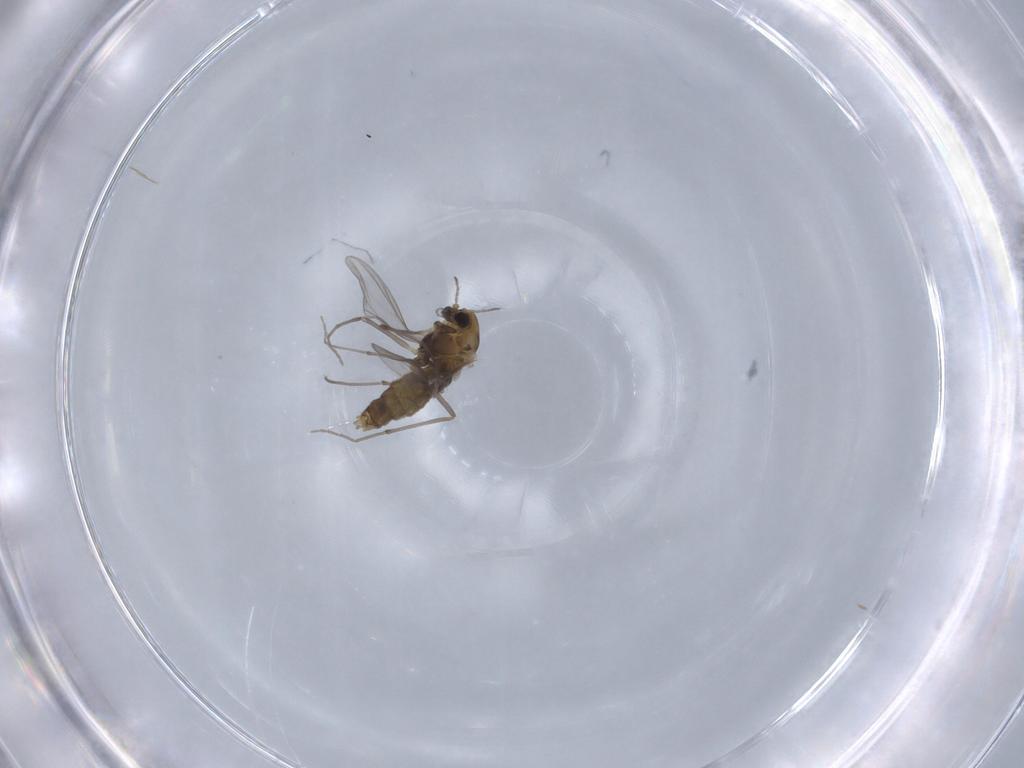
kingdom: Animalia
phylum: Arthropoda
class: Insecta
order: Diptera
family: Chironomidae
